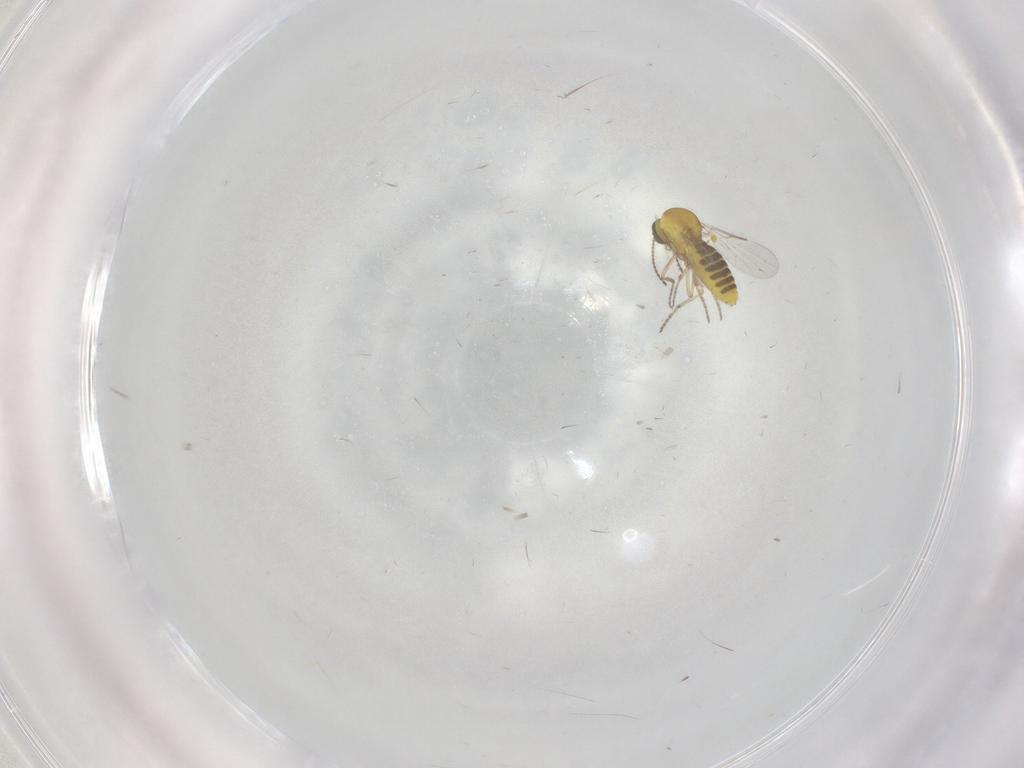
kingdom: Animalia
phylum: Arthropoda
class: Insecta
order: Diptera
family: Ceratopogonidae
